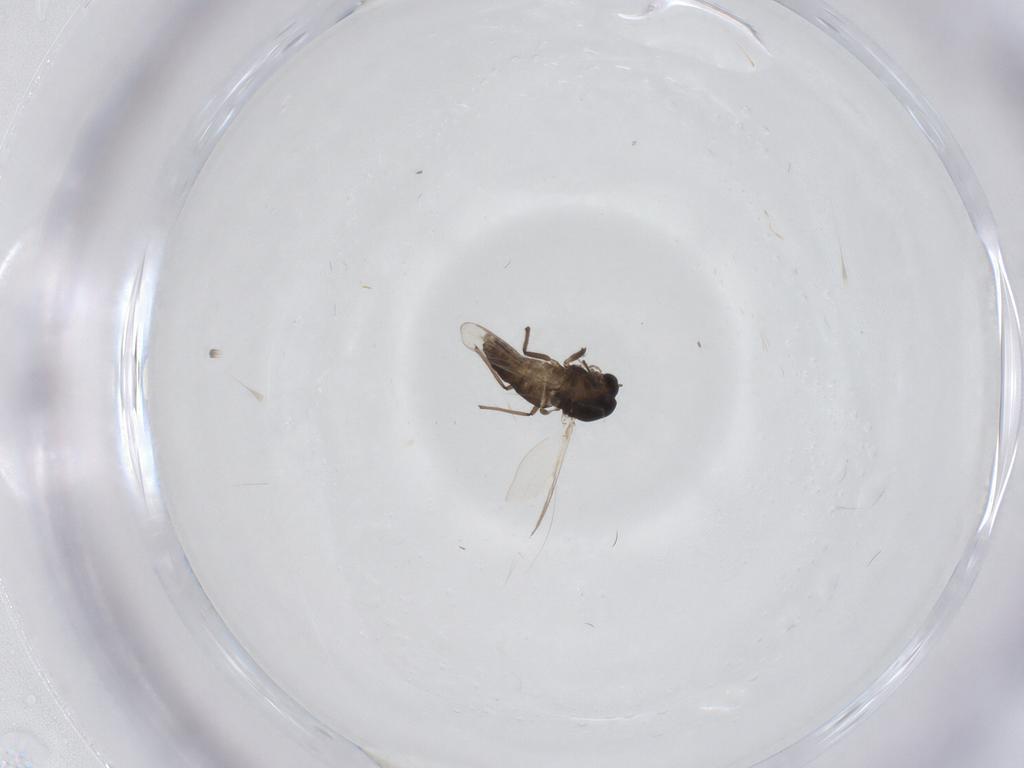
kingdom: Animalia
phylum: Arthropoda
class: Insecta
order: Diptera
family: Chironomidae
